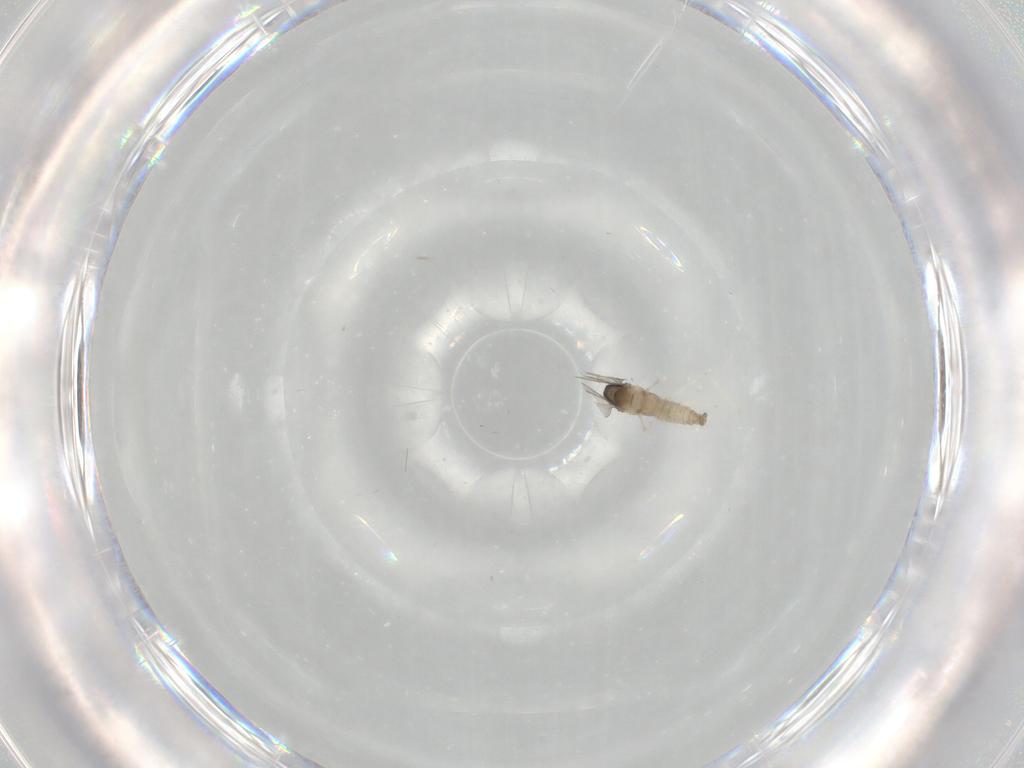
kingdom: Animalia
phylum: Arthropoda
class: Insecta
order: Diptera
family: Cecidomyiidae
